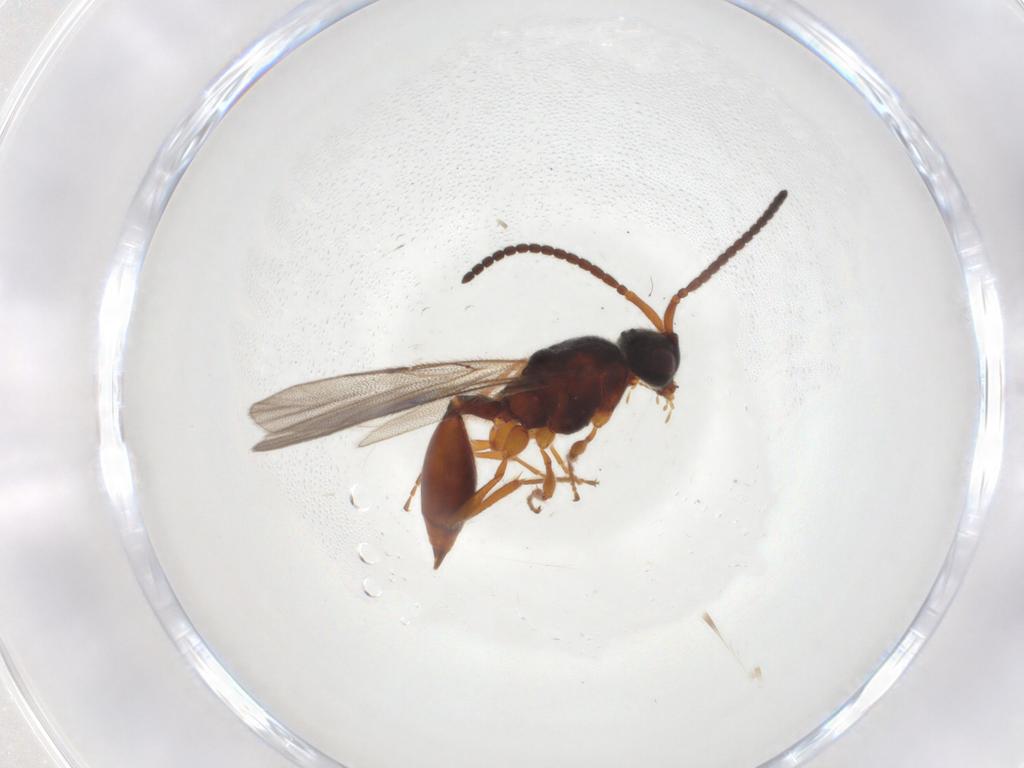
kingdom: Animalia
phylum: Arthropoda
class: Insecta
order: Hymenoptera
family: Diapriidae
